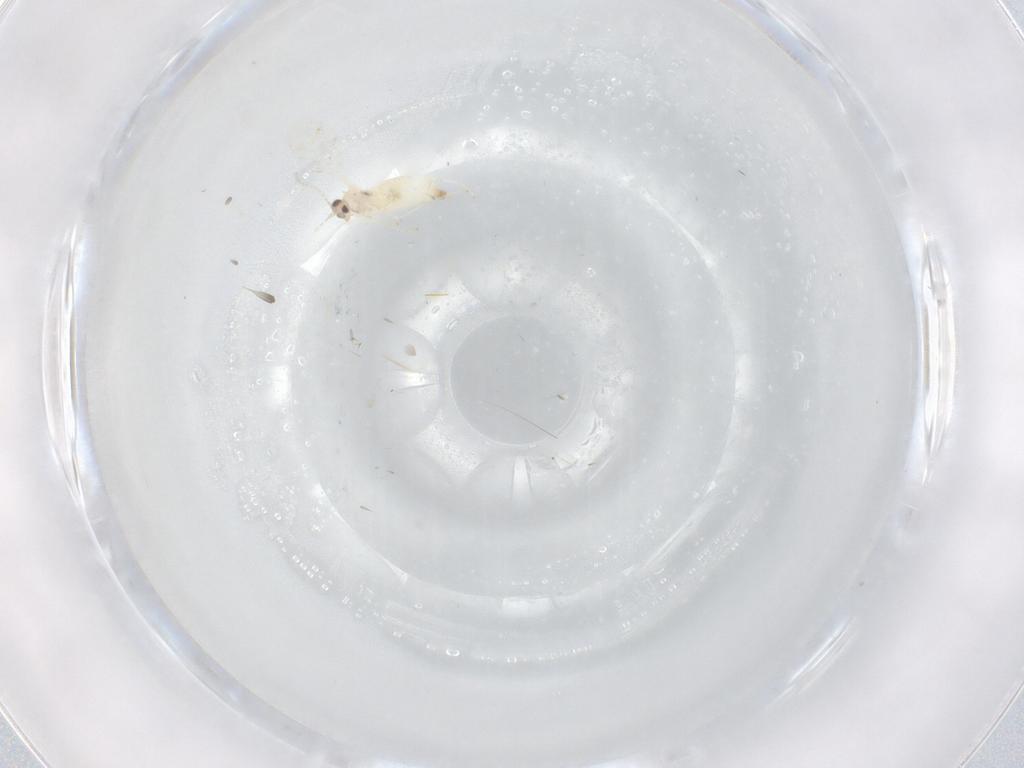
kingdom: Animalia
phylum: Arthropoda
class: Insecta
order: Diptera
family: Cecidomyiidae
